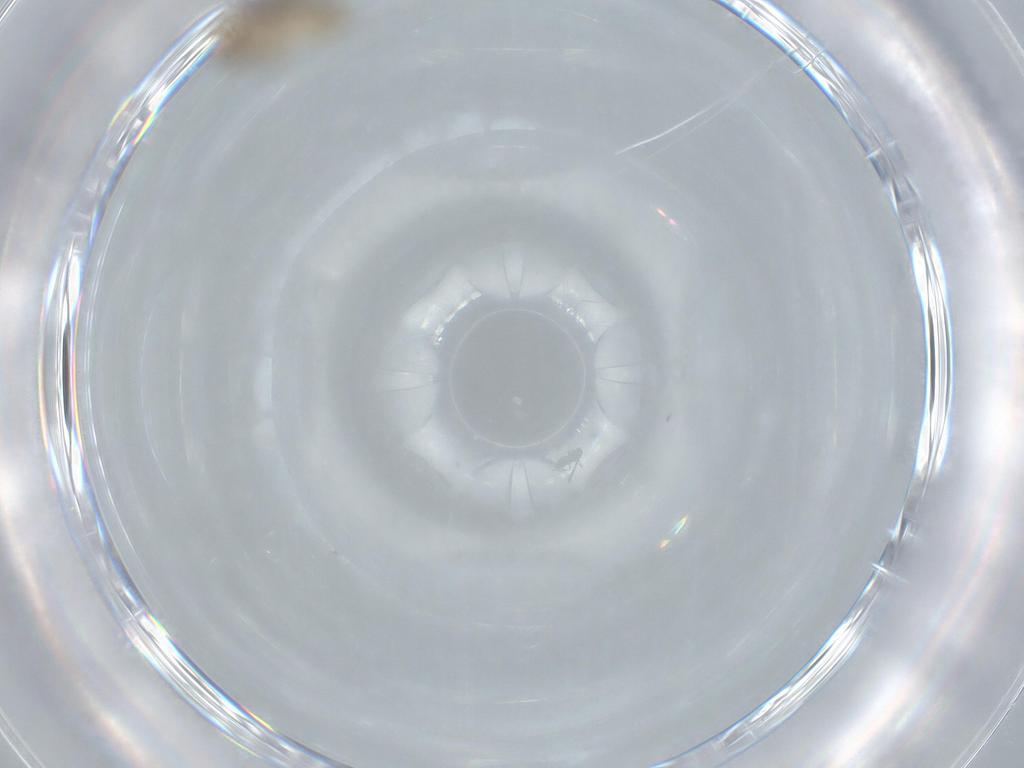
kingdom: Animalia
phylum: Arthropoda
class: Insecta
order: Diptera
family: Chironomidae
